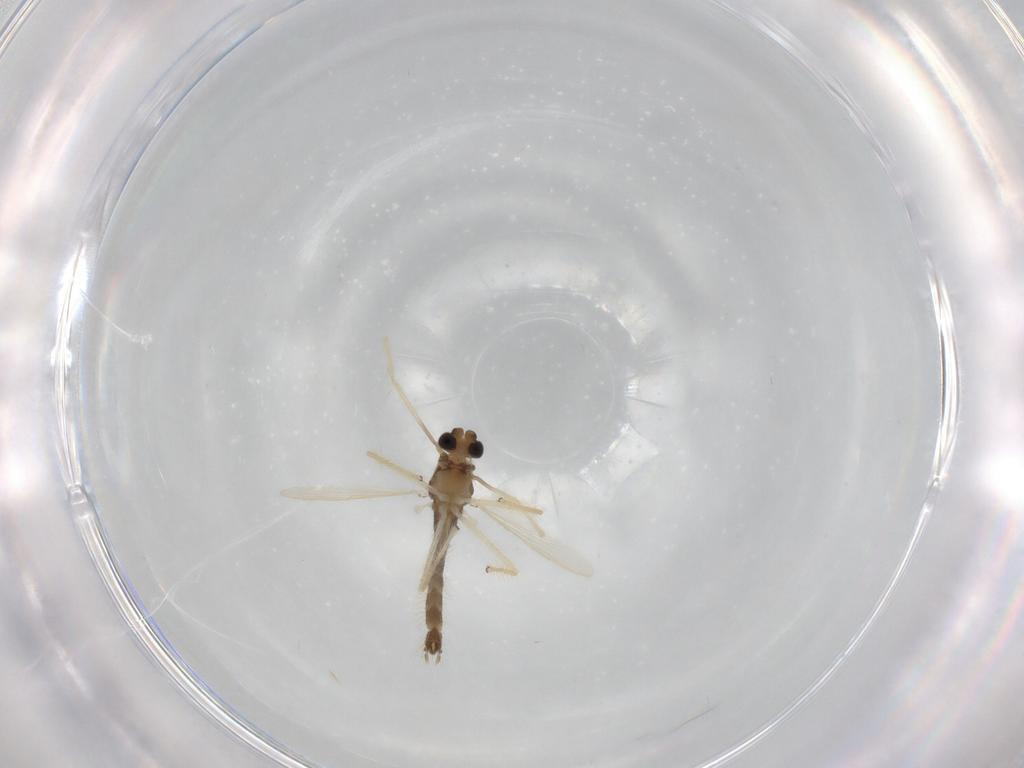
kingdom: Animalia
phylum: Arthropoda
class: Insecta
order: Diptera
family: Chironomidae
